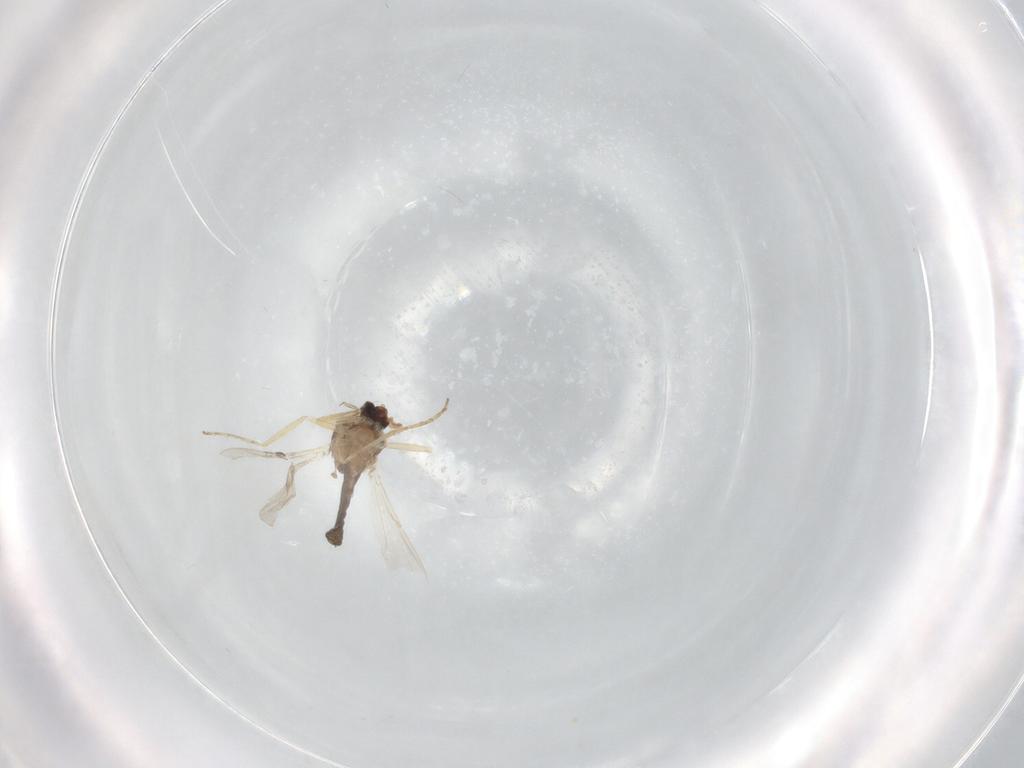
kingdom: Animalia
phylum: Arthropoda
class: Insecta
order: Diptera
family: Ceratopogonidae
